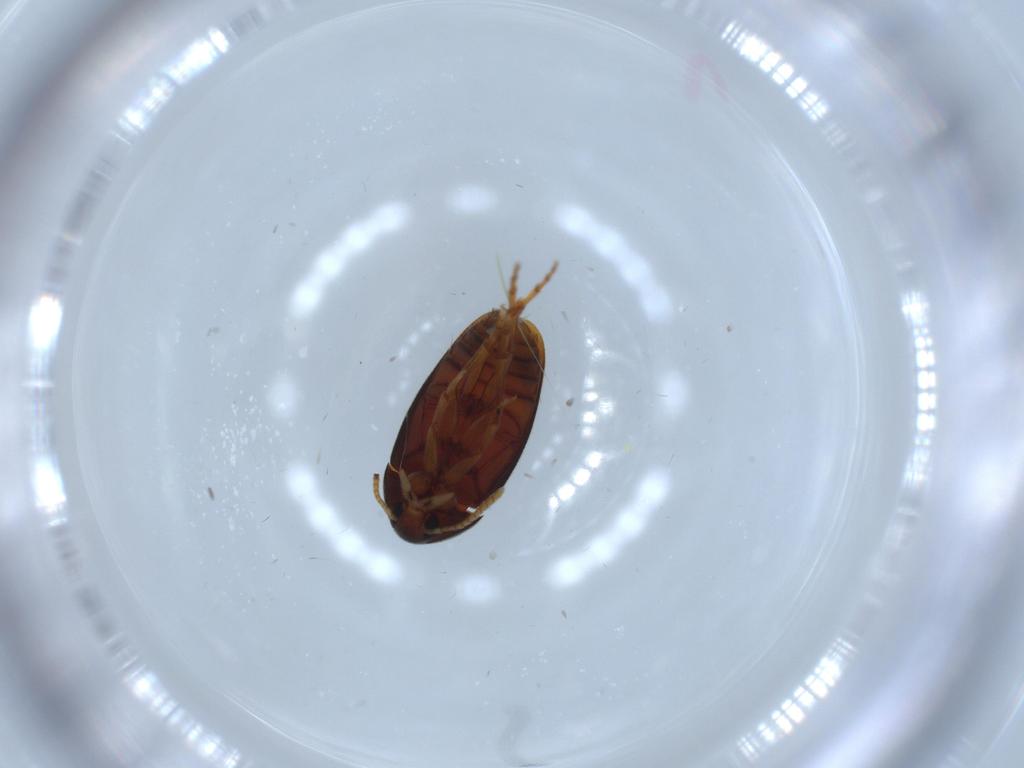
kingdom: Animalia
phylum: Arthropoda
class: Insecta
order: Coleoptera
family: Scraptiidae
